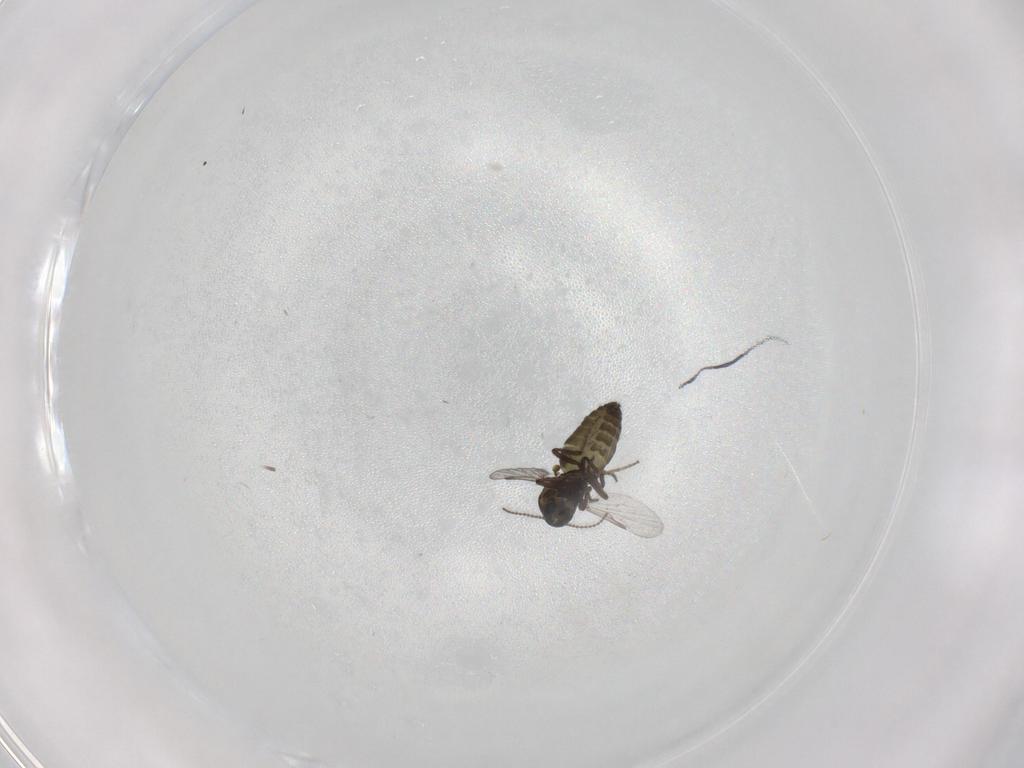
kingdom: Animalia
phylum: Arthropoda
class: Insecta
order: Diptera
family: Ceratopogonidae
